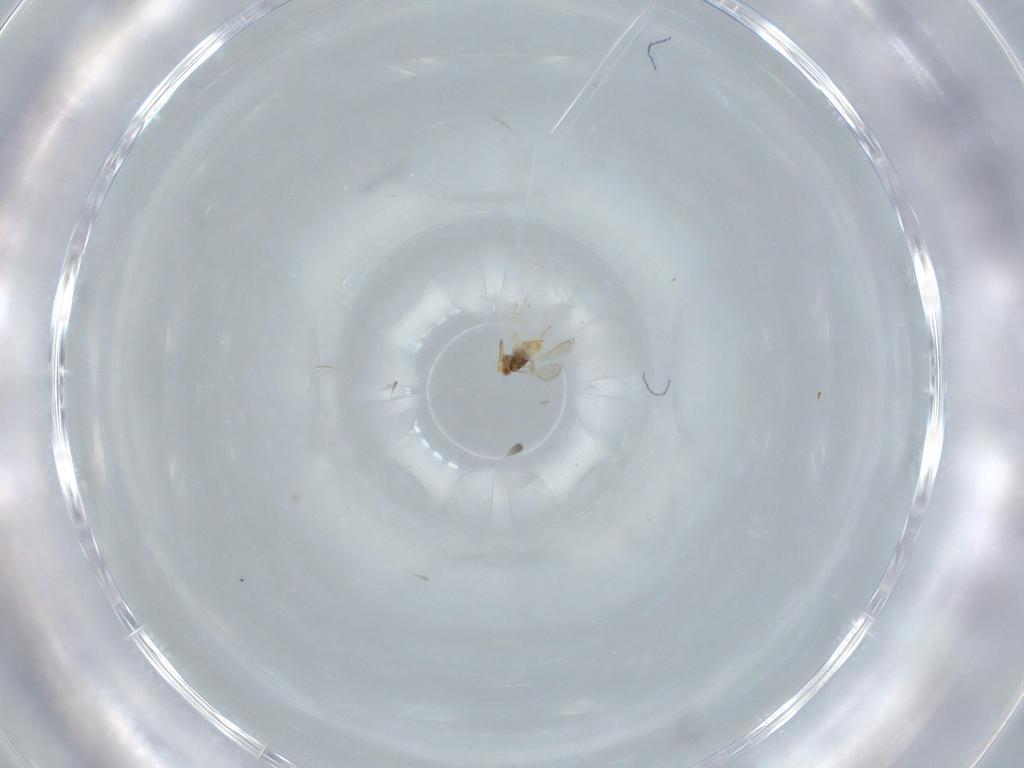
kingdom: Animalia
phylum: Arthropoda
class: Insecta
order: Hymenoptera
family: Aphelinidae
